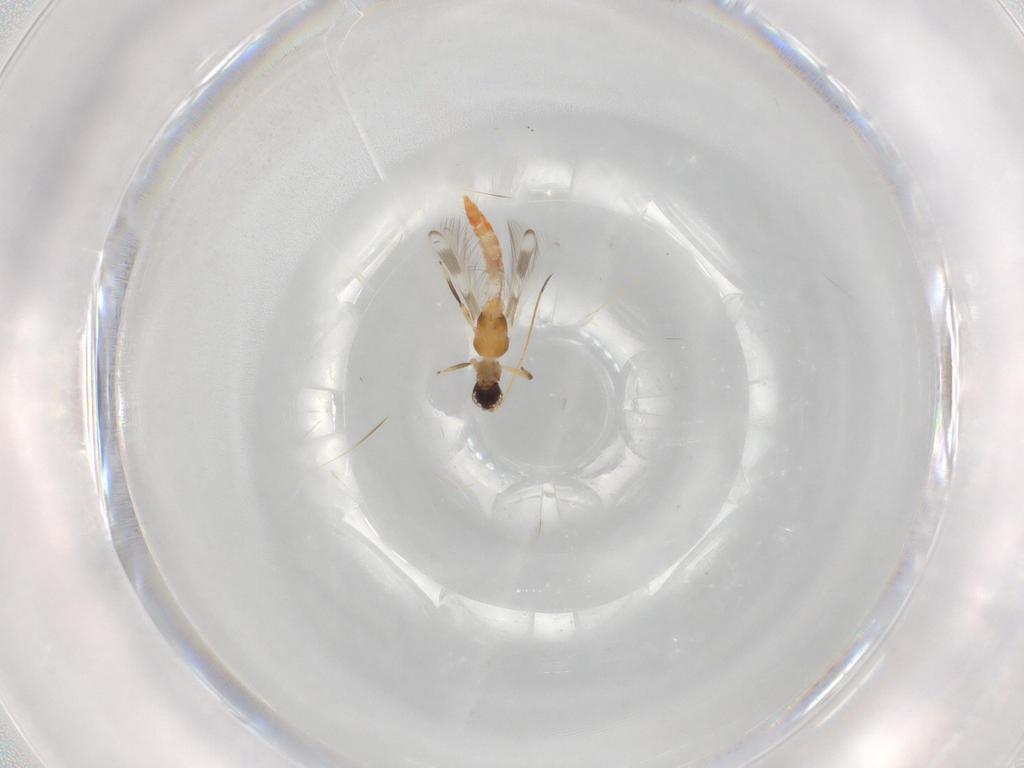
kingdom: Animalia
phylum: Arthropoda
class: Insecta
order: Thysanoptera
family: Aeolothripidae
